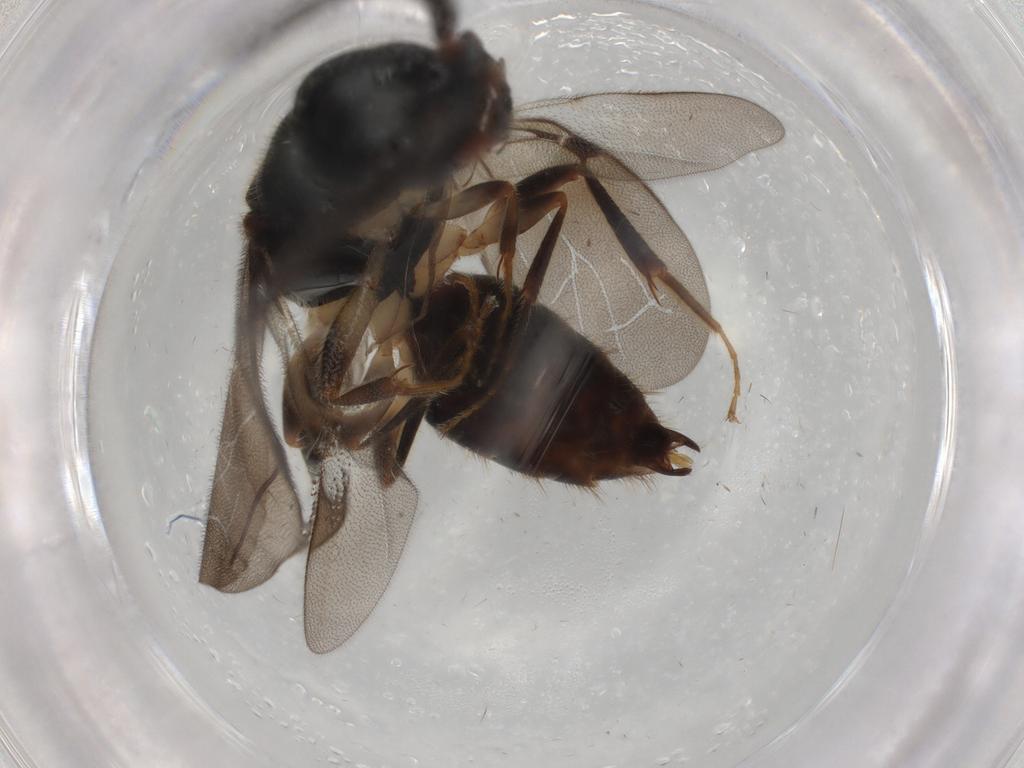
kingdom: Animalia
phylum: Arthropoda
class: Insecta
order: Hymenoptera
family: Bethylidae
